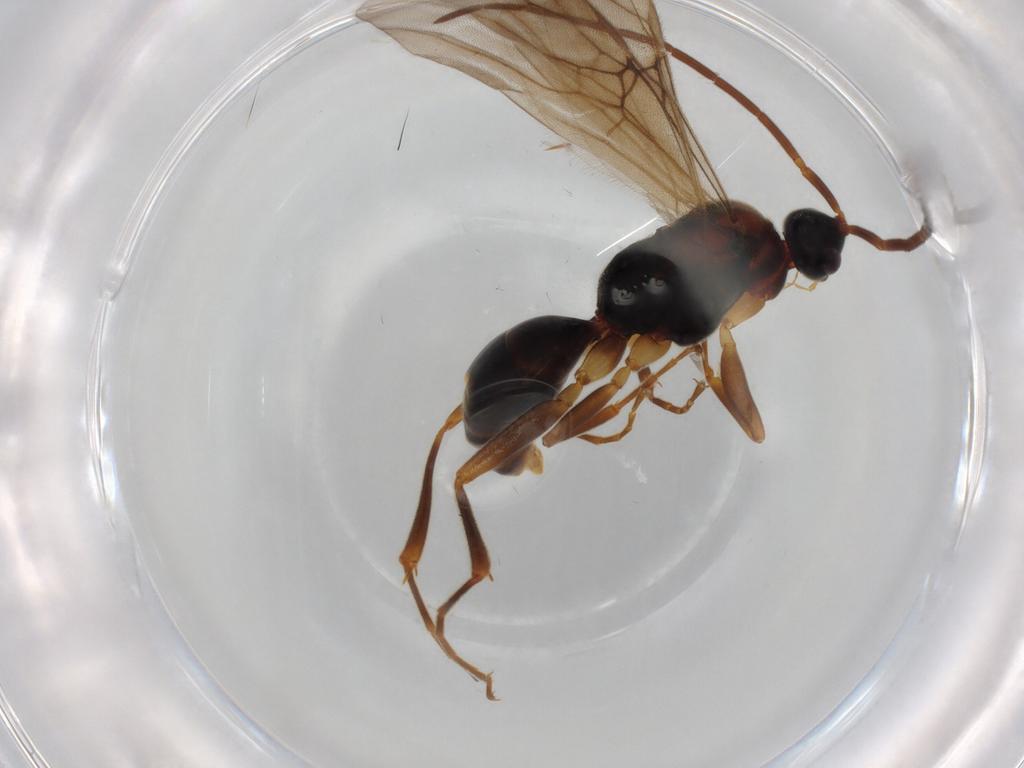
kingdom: Animalia
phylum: Arthropoda
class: Insecta
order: Hymenoptera
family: Embolemidae
